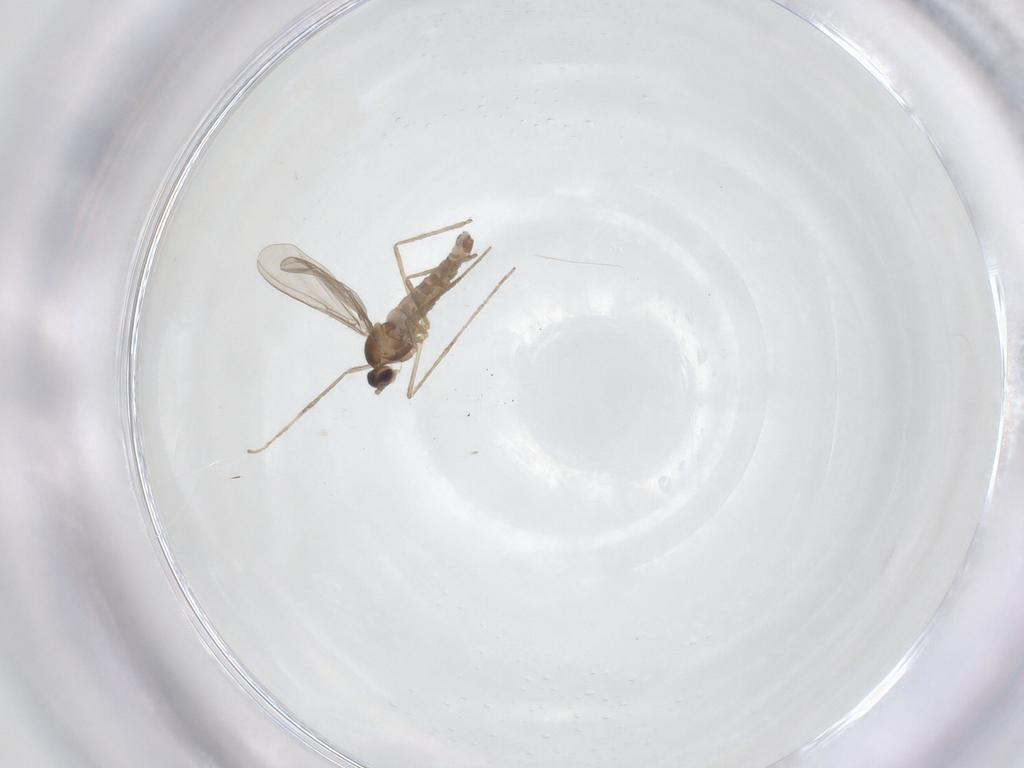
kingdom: Animalia
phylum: Arthropoda
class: Insecta
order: Diptera
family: Cecidomyiidae
